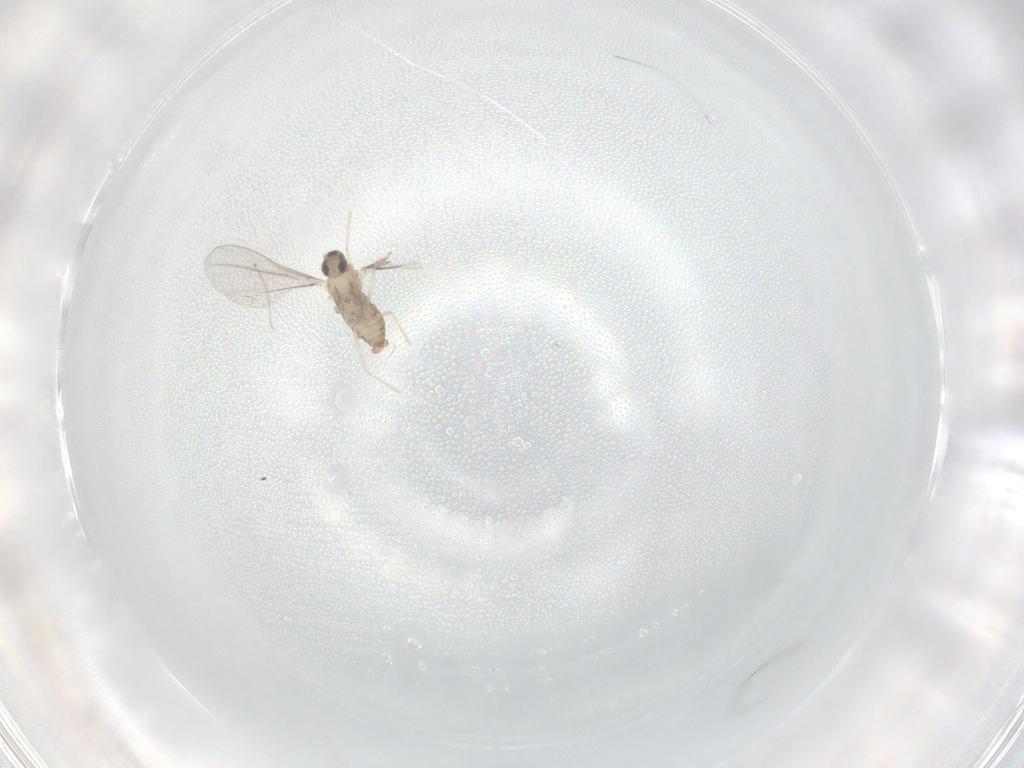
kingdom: Animalia
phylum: Arthropoda
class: Insecta
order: Diptera
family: Cecidomyiidae
